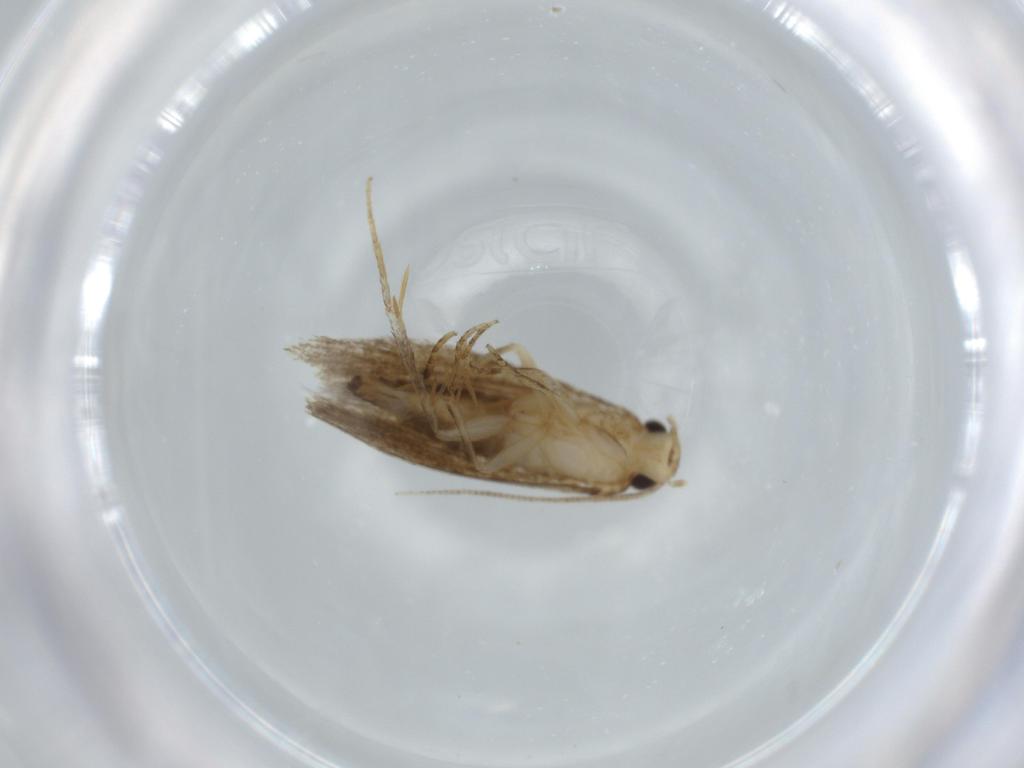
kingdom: Animalia
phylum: Arthropoda
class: Insecta
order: Lepidoptera
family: Tineidae
